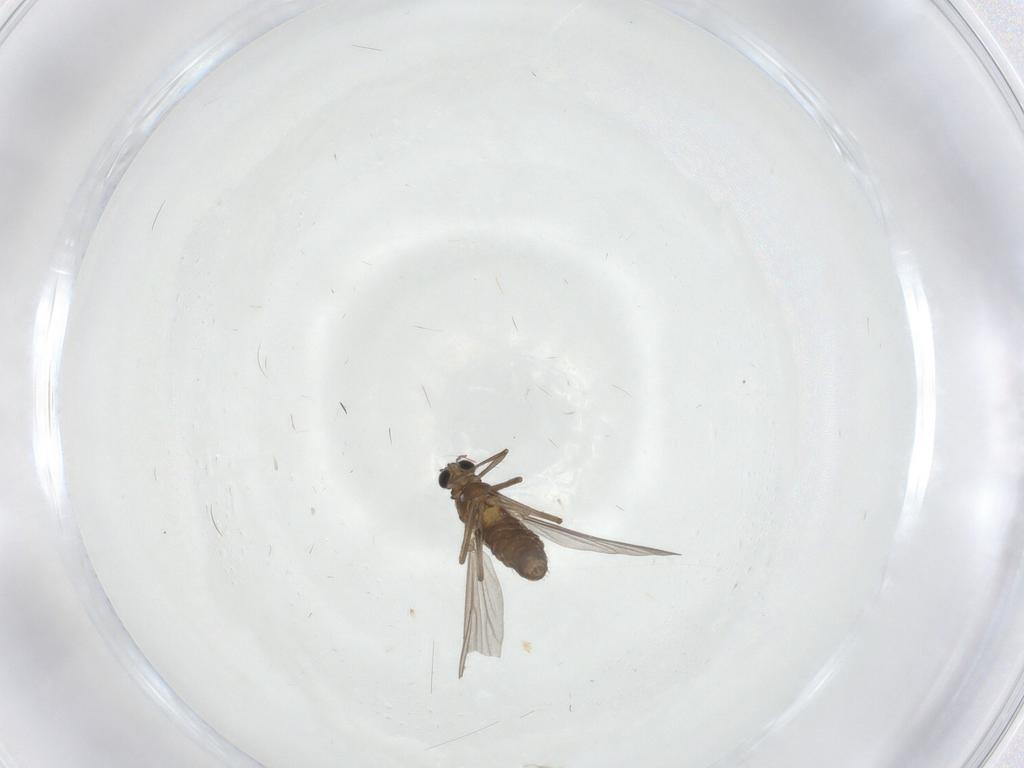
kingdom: Animalia
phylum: Arthropoda
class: Insecta
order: Diptera
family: Chironomidae
